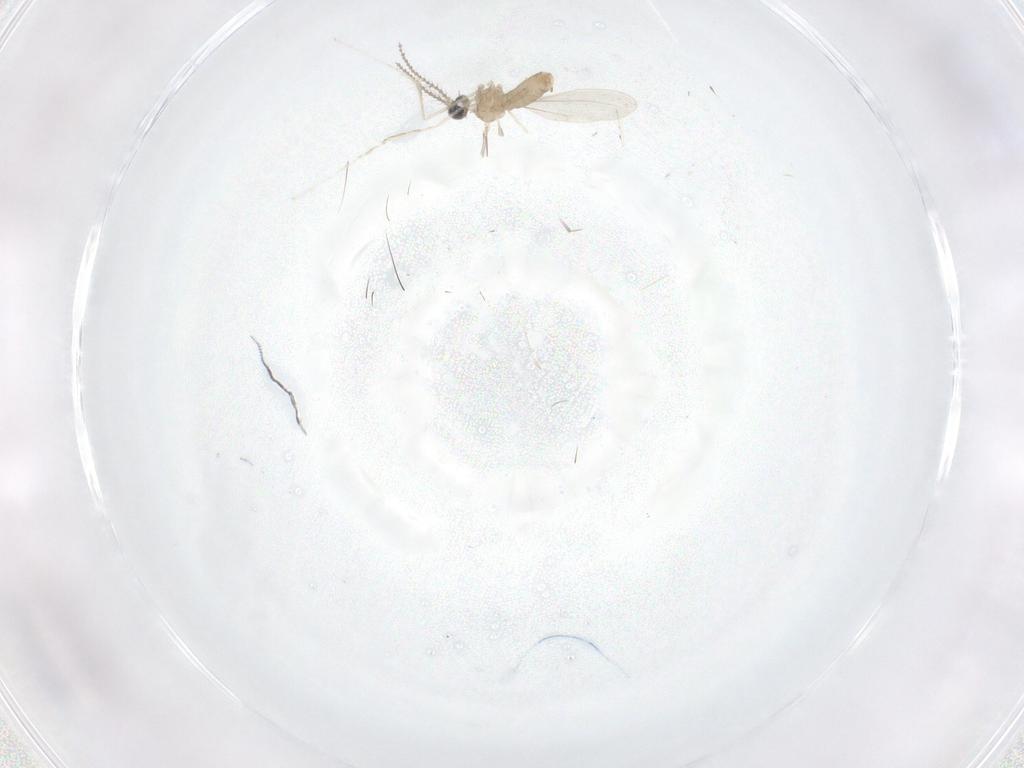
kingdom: Animalia
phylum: Arthropoda
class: Insecta
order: Diptera
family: Cecidomyiidae
